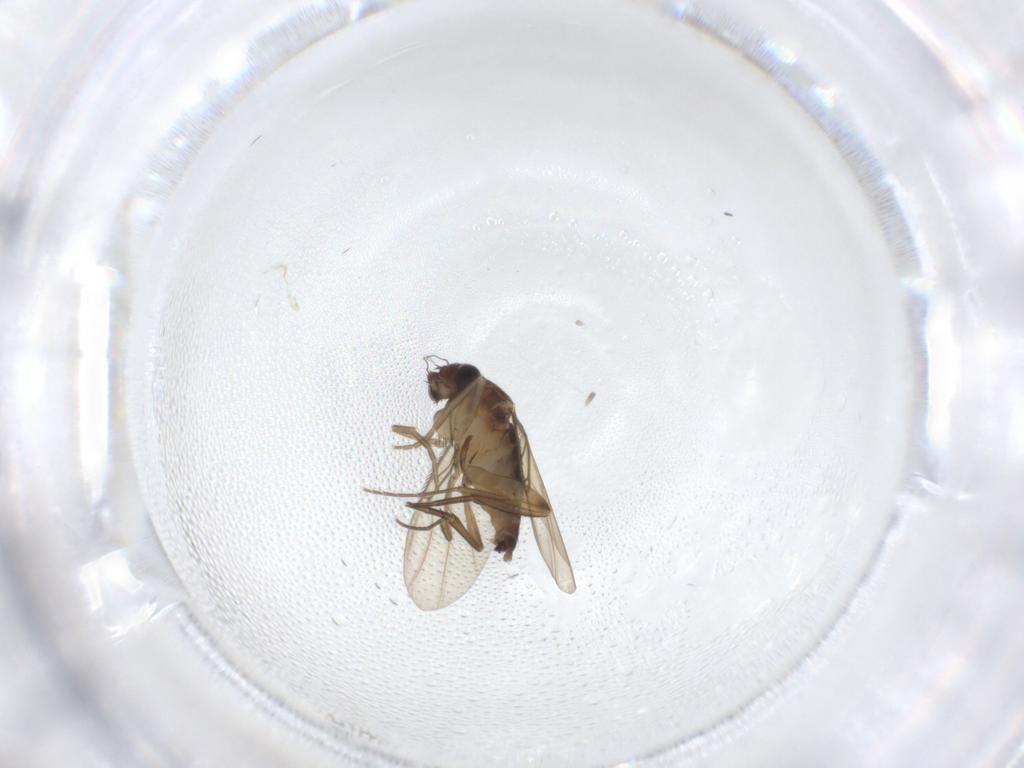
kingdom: Animalia
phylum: Arthropoda
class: Insecta
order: Diptera
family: Phoridae
